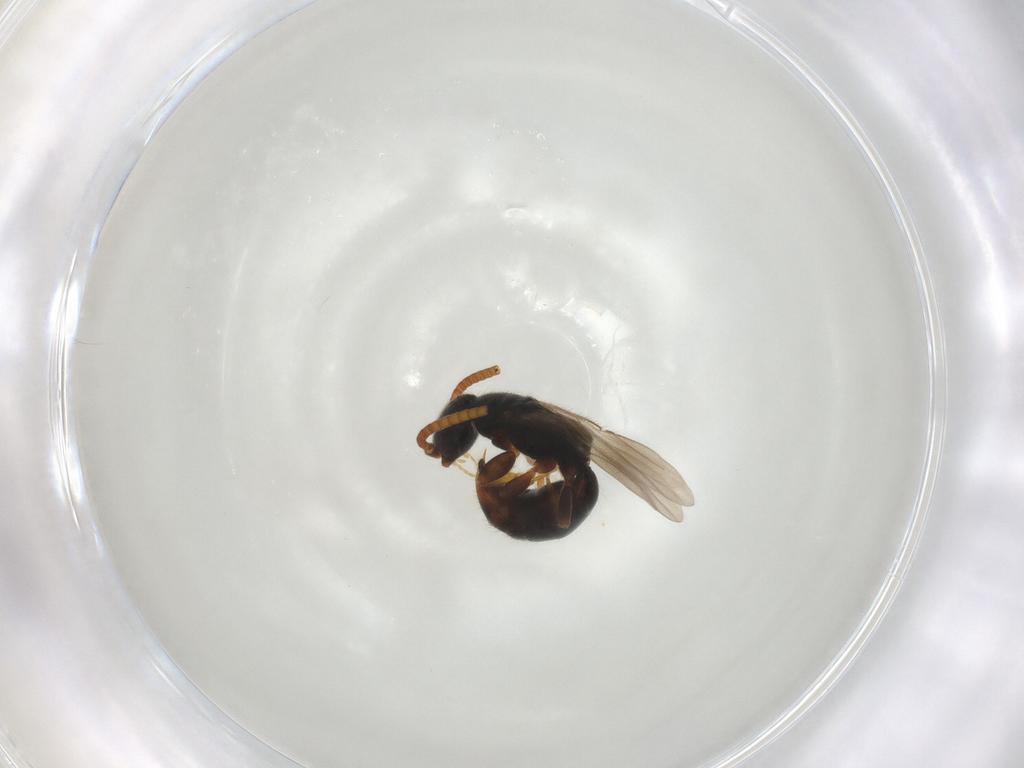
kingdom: Animalia
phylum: Arthropoda
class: Insecta
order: Hymenoptera
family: Bethylidae
